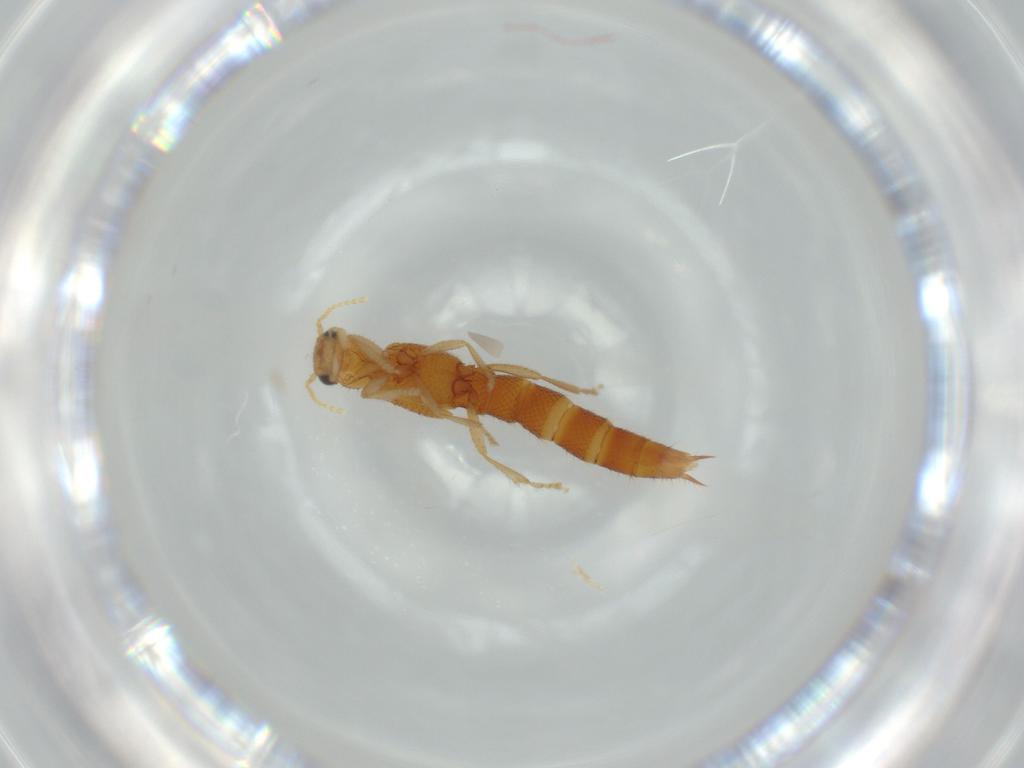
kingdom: Animalia
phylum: Arthropoda
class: Insecta
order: Coleoptera
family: Staphylinidae
